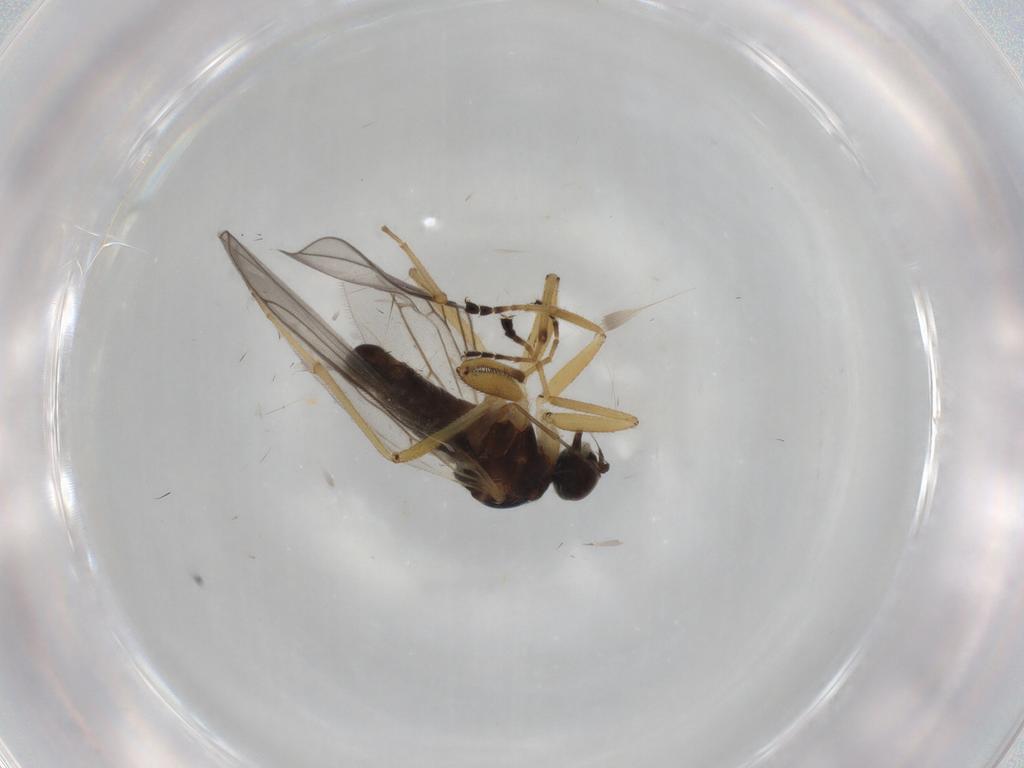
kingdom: Animalia
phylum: Arthropoda
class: Insecta
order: Diptera
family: Hybotidae
